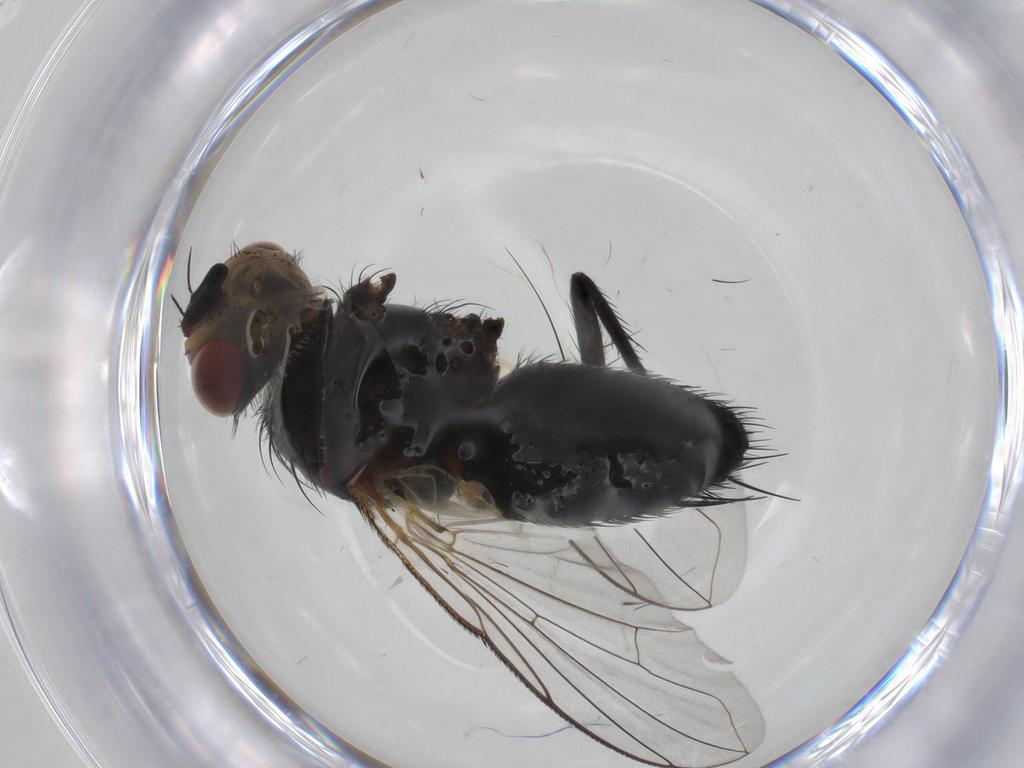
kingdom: Animalia
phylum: Arthropoda
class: Insecta
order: Diptera
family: Tachinidae
